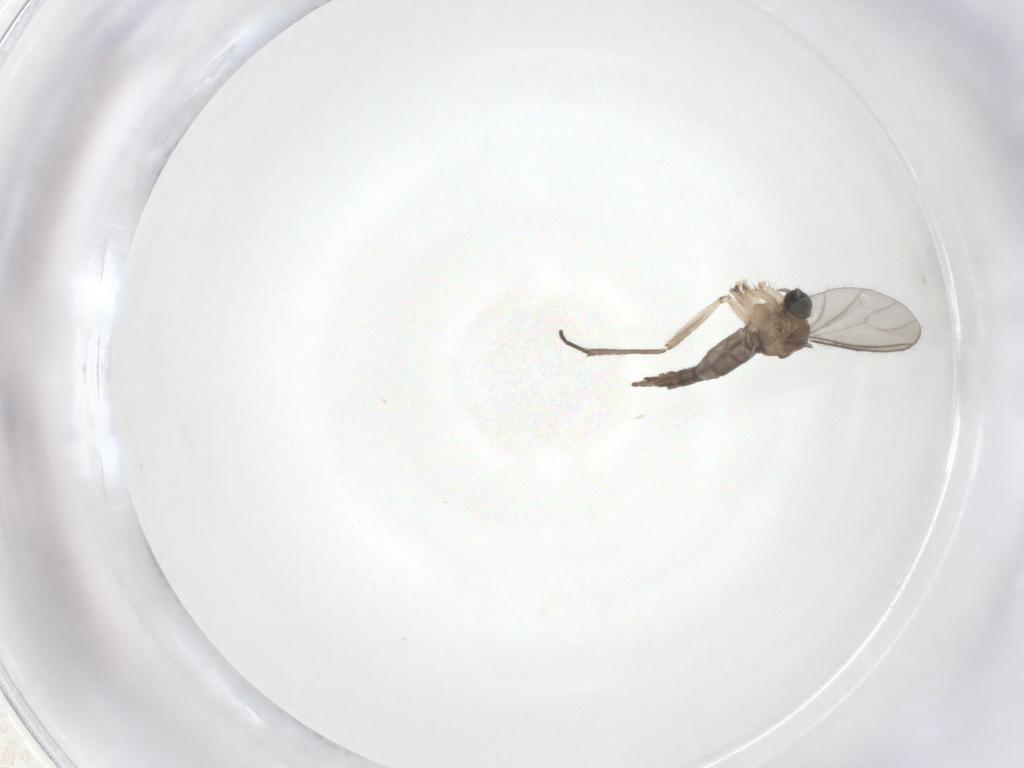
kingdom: Animalia
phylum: Arthropoda
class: Insecta
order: Diptera
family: Sciaridae
